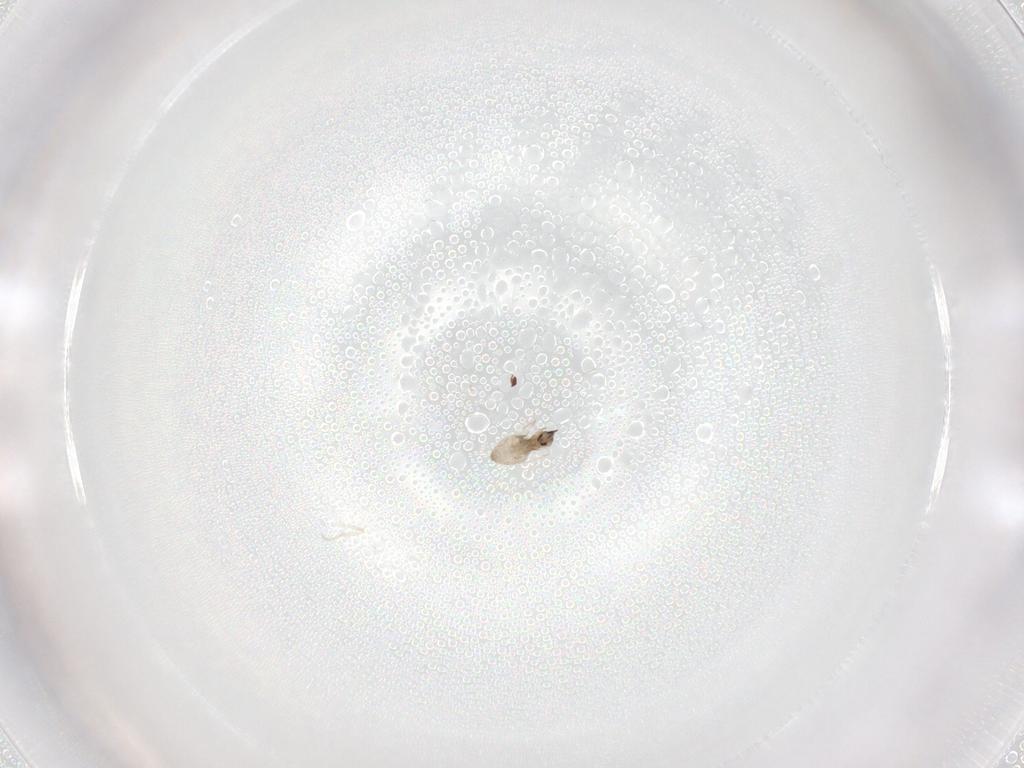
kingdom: Animalia
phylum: Arthropoda
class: Insecta
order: Diptera
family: Cecidomyiidae
